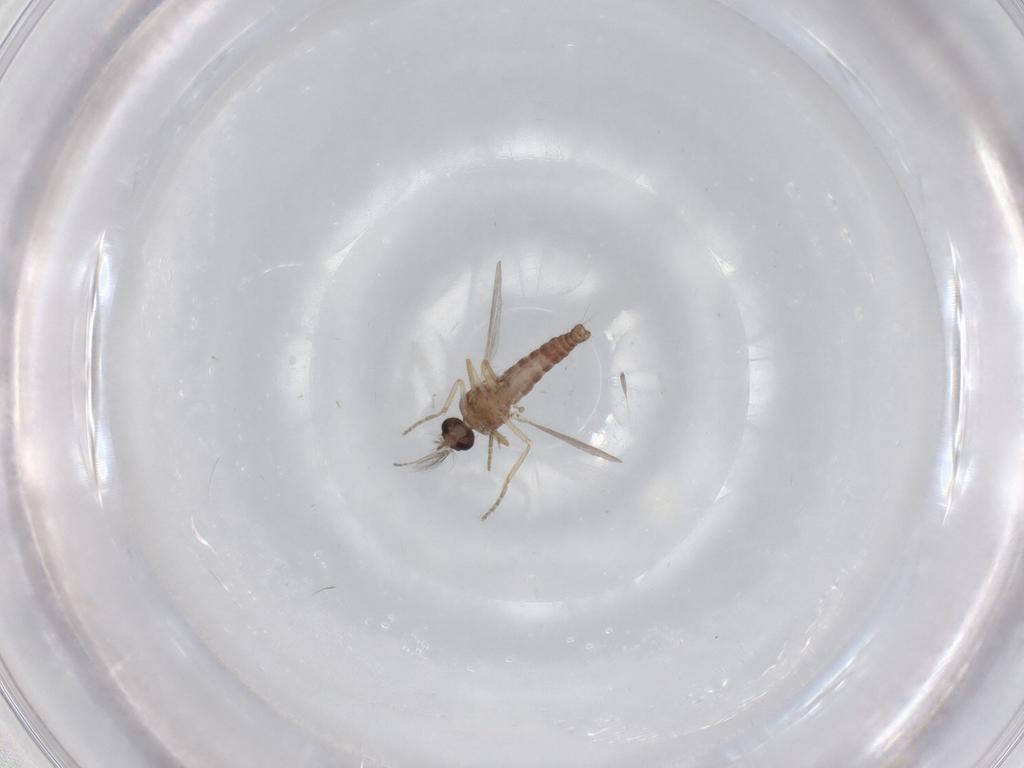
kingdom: Animalia
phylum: Arthropoda
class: Insecta
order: Diptera
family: Ceratopogonidae
